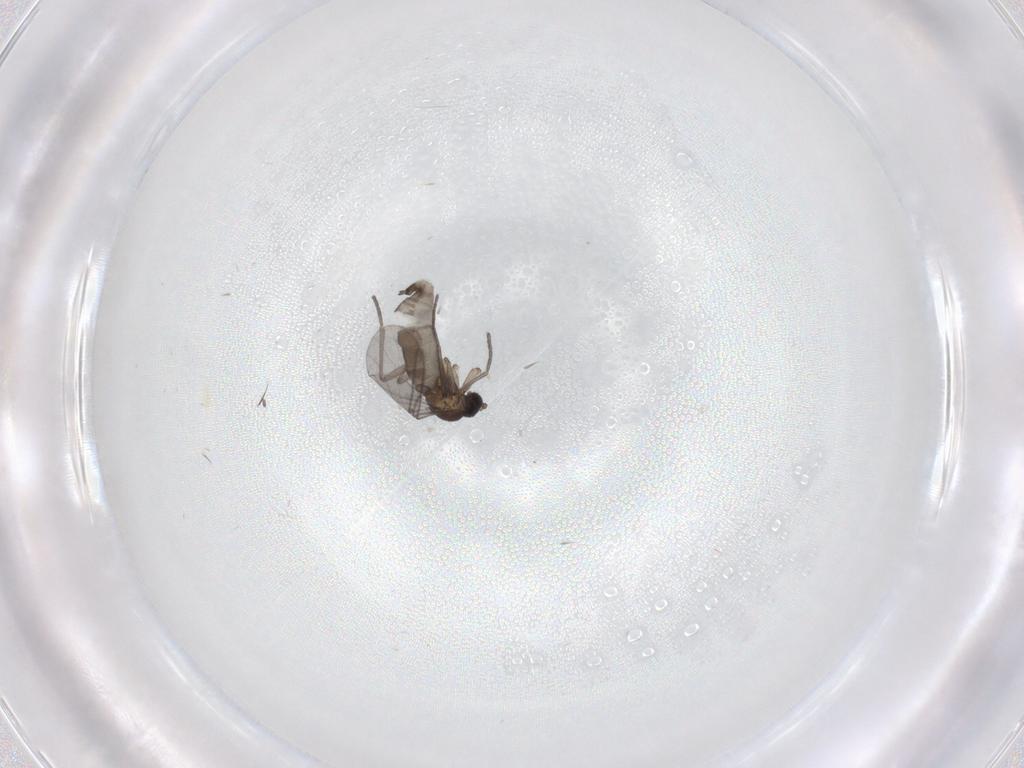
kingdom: Animalia
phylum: Arthropoda
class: Insecta
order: Diptera
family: Sciaridae
